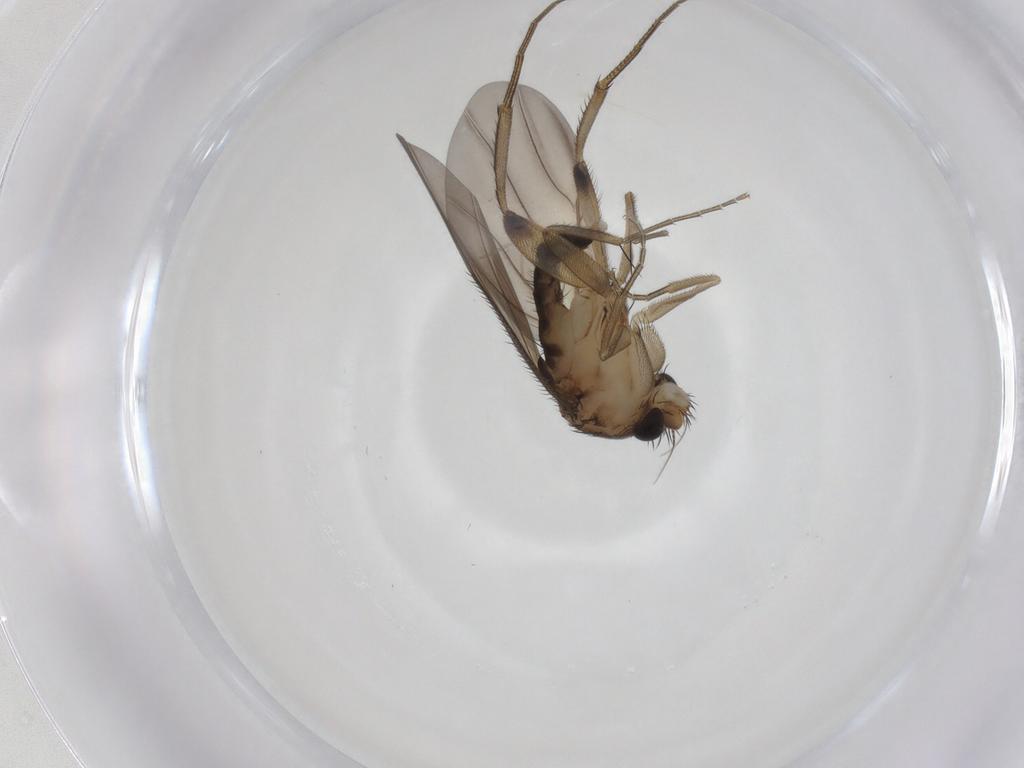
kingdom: Animalia
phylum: Arthropoda
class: Insecta
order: Diptera
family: Phoridae
